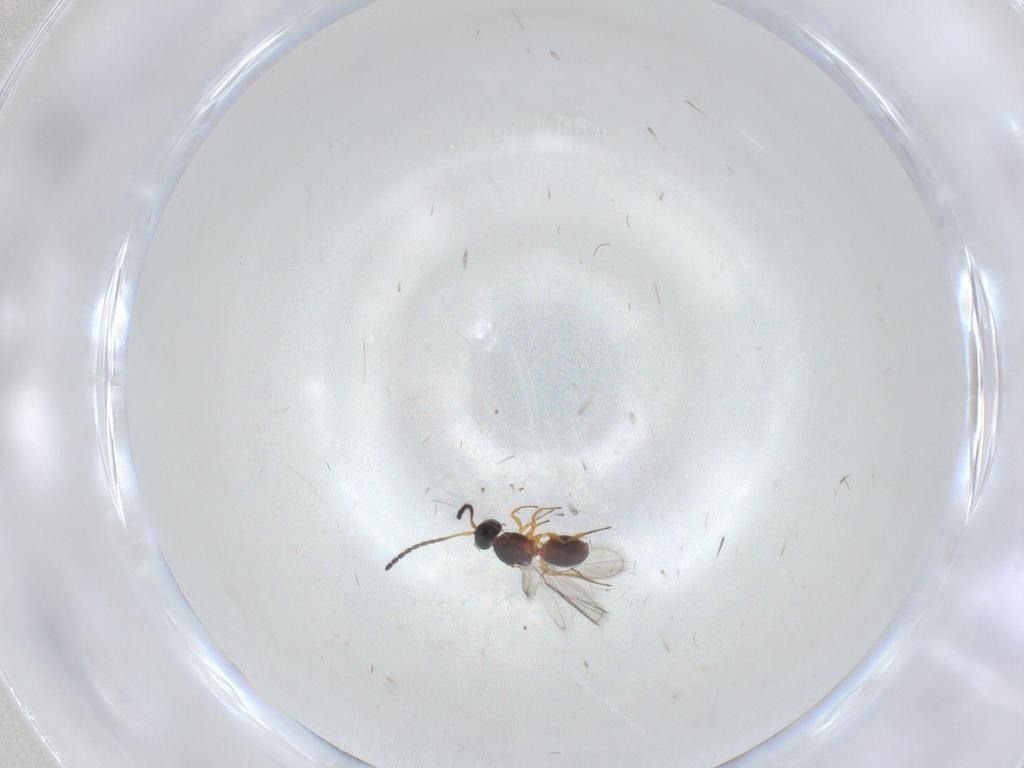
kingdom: Animalia
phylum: Arthropoda
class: Insecta
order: Hymenoptera
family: Figitidae
